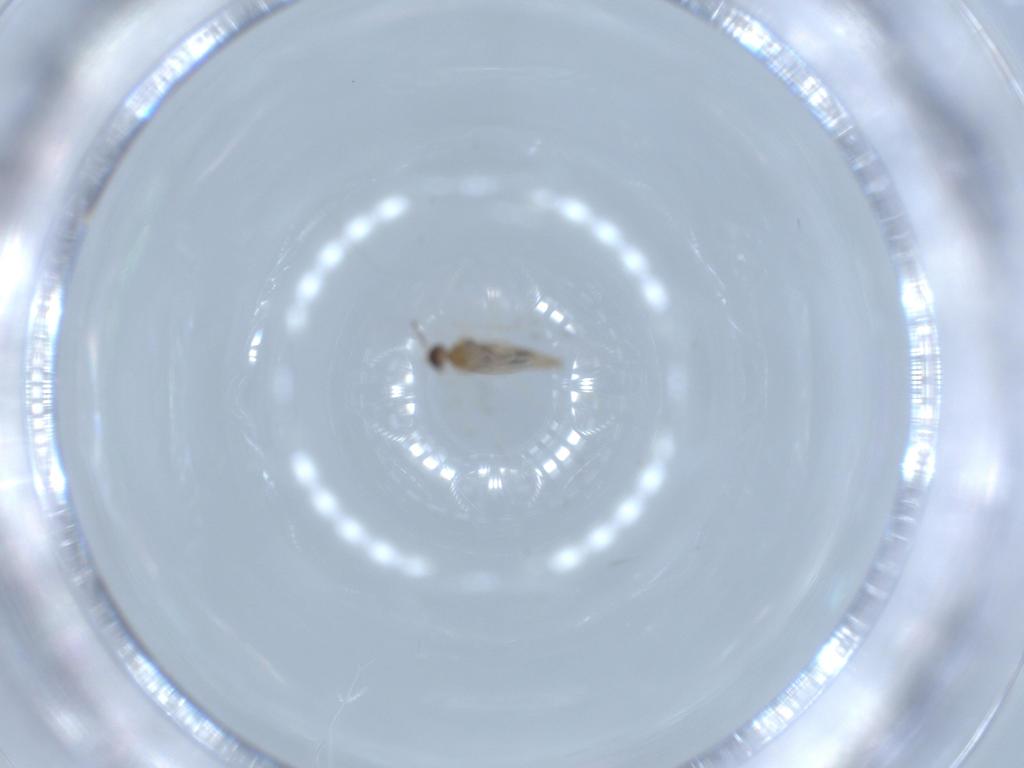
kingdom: Animalia
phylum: Arthropoda
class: Insecta
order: Diptera
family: Cecidomyiidae
